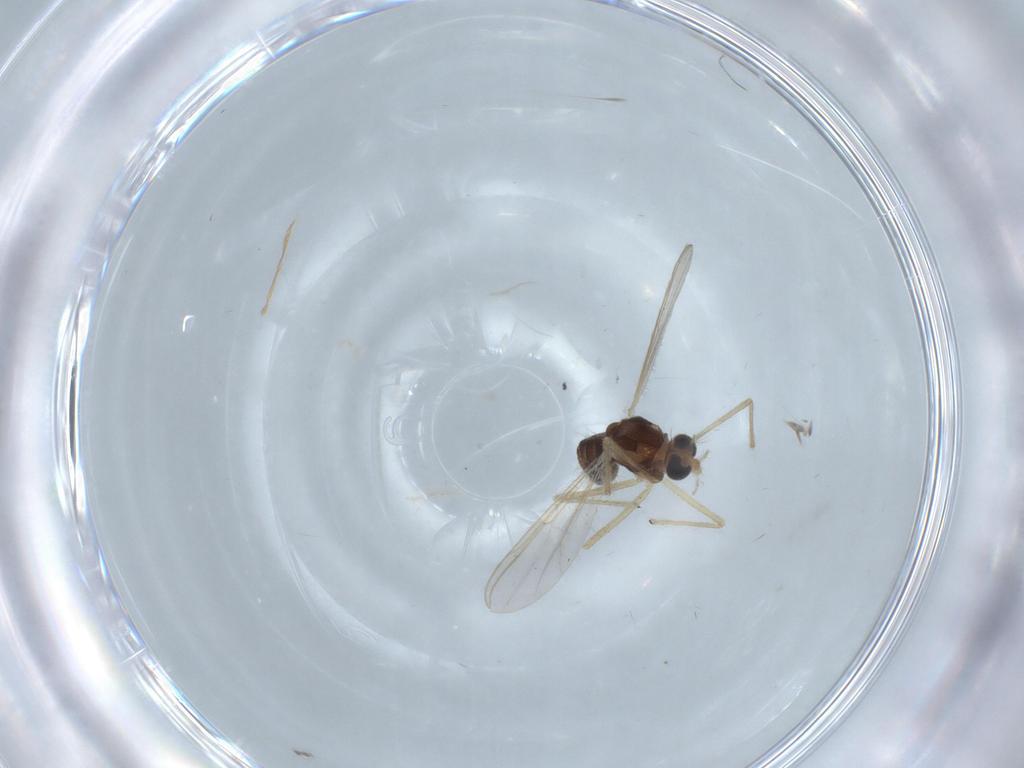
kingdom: Animalia
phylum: Arthropoda
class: Insecta
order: Diptera
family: Chironomidae
